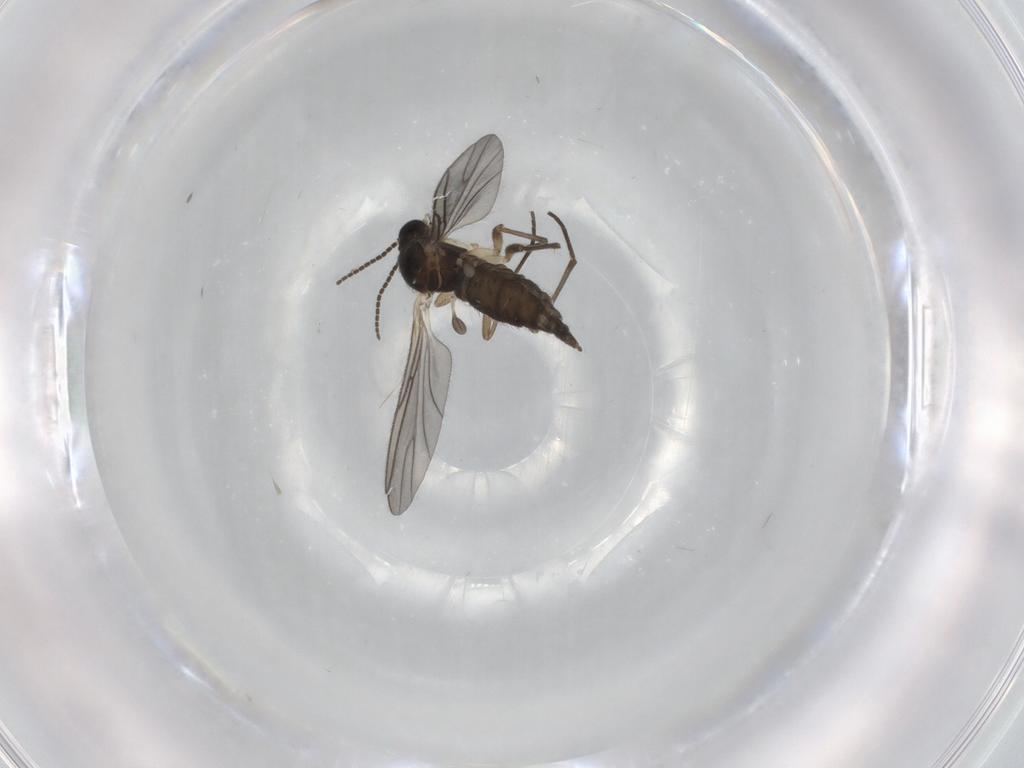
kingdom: Animalia
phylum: Arthropoda
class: Insecta
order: Diptera
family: Sciaridae
